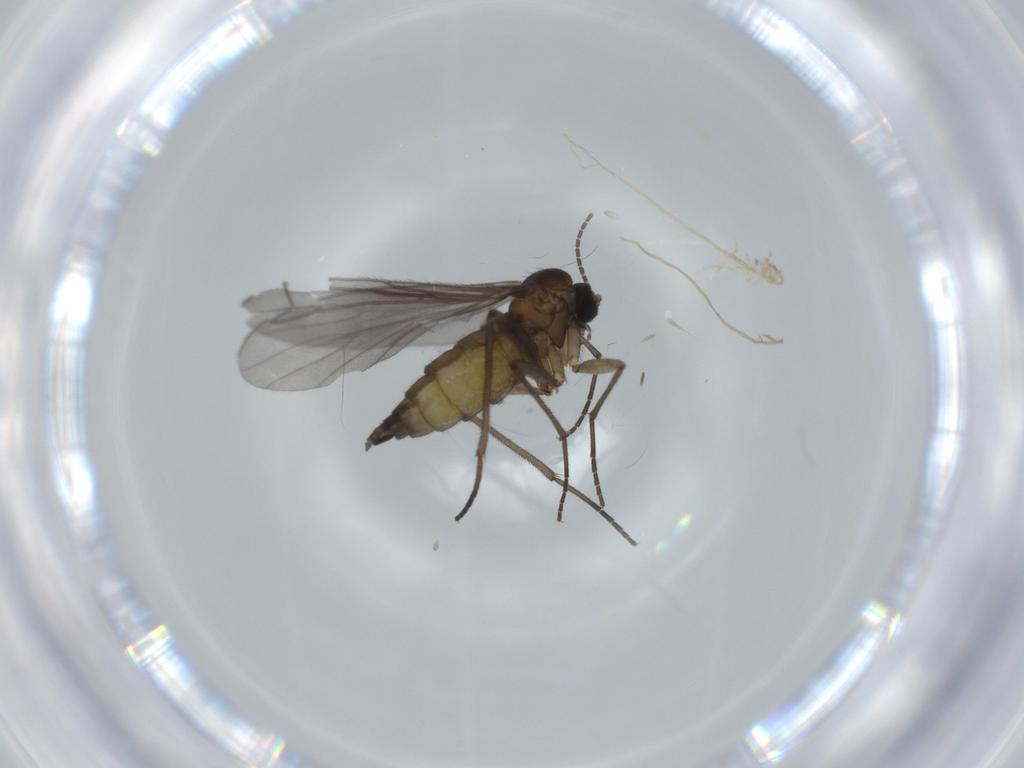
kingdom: Animalia
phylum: Arthropoda
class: Insecta
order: Diptera
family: Sciaridae
